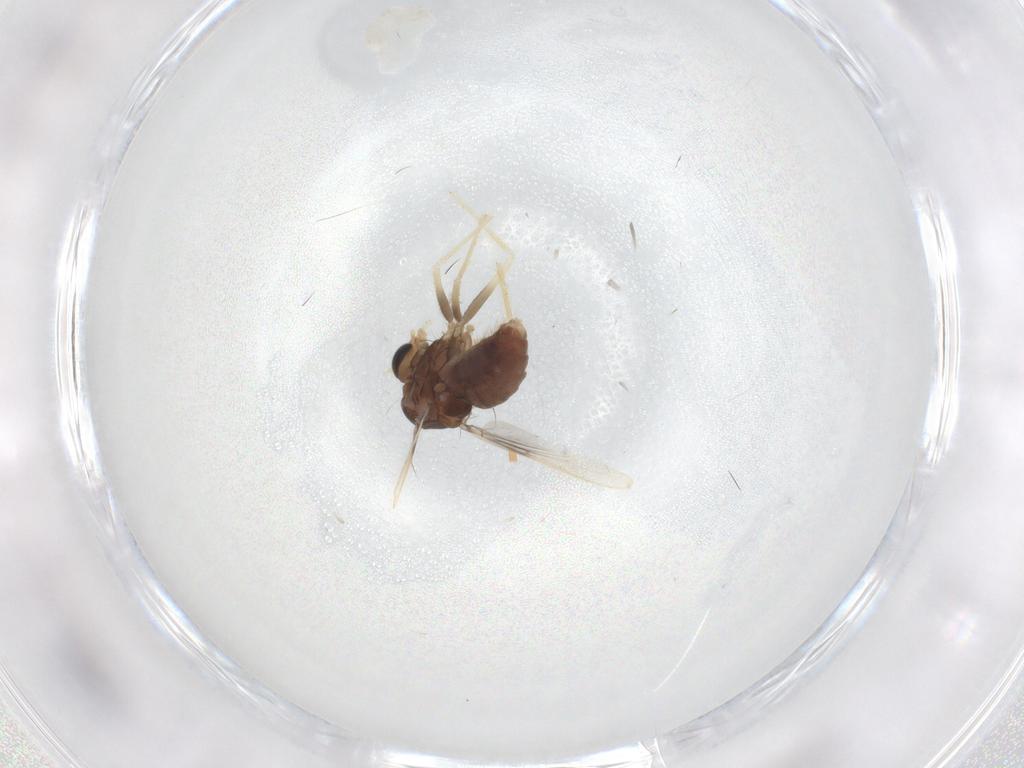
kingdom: Animalia
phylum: Arthropoda
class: Insecta
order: Diptera
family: Chironomidae
